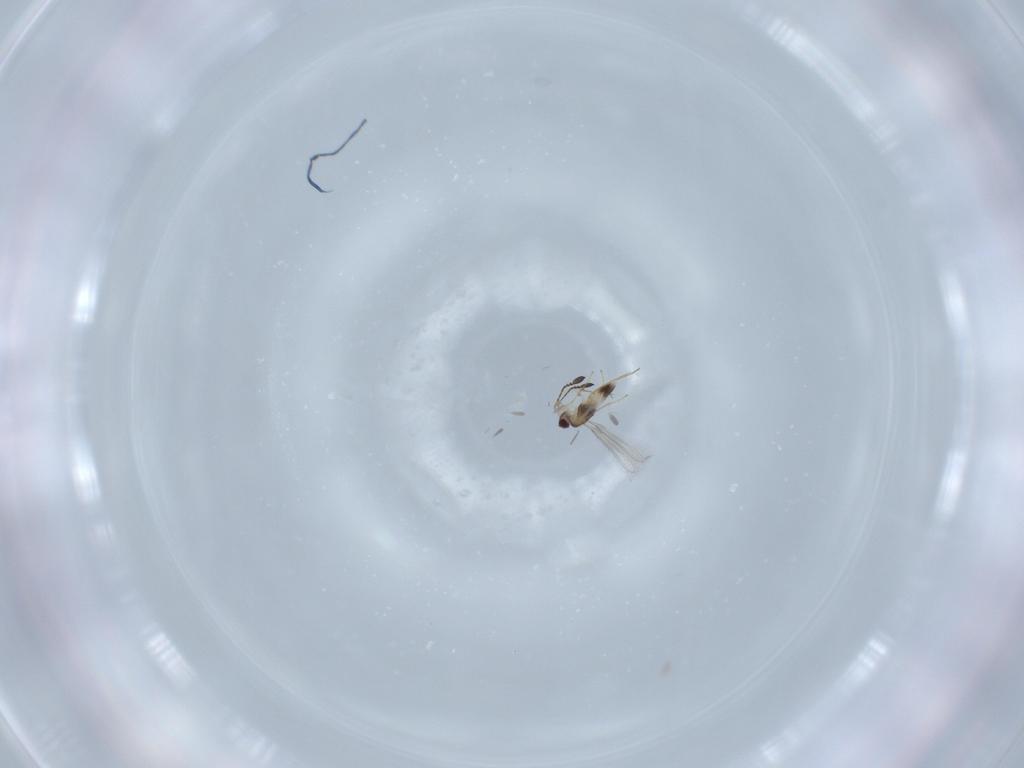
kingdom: Animalia
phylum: Arthropoda
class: Insecta
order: Hymenoptera
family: Mymaridae
